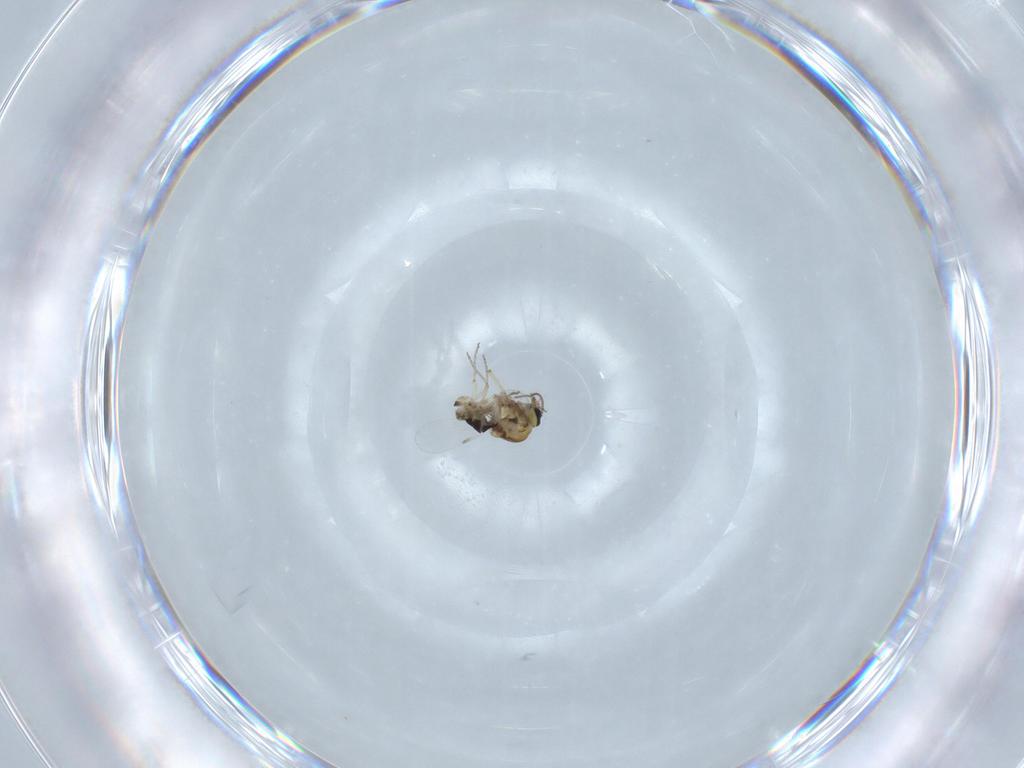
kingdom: Animalia
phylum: Arthropoda
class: Insecta
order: Diptera
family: Ceratopogonidae
